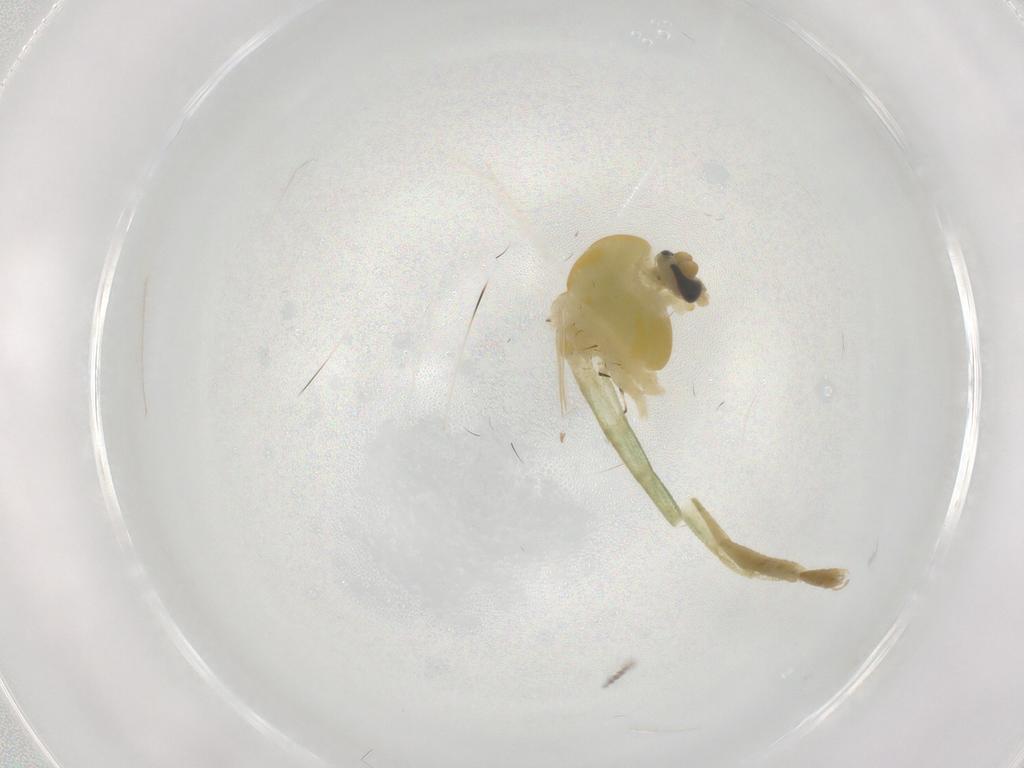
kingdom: Animalia
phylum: Arthropoda
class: Insecta
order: Diptera
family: Chironomidae
